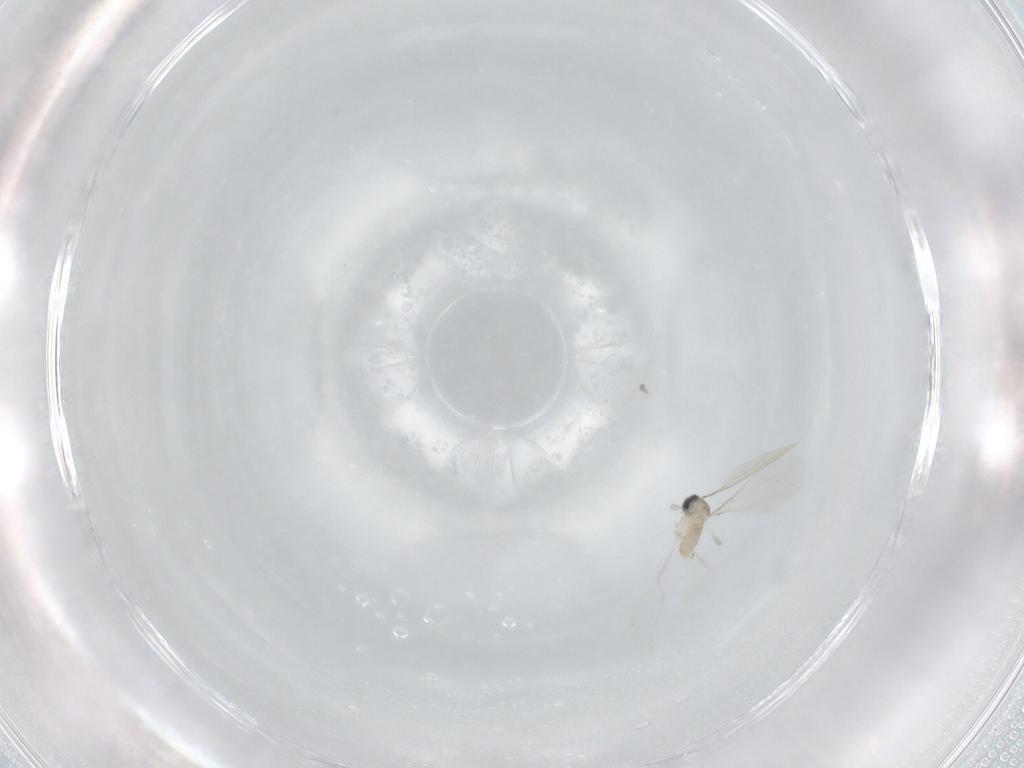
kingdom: Animalia
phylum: Arthropoda
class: Insecta
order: Diptera
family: Cecidomyiidae
